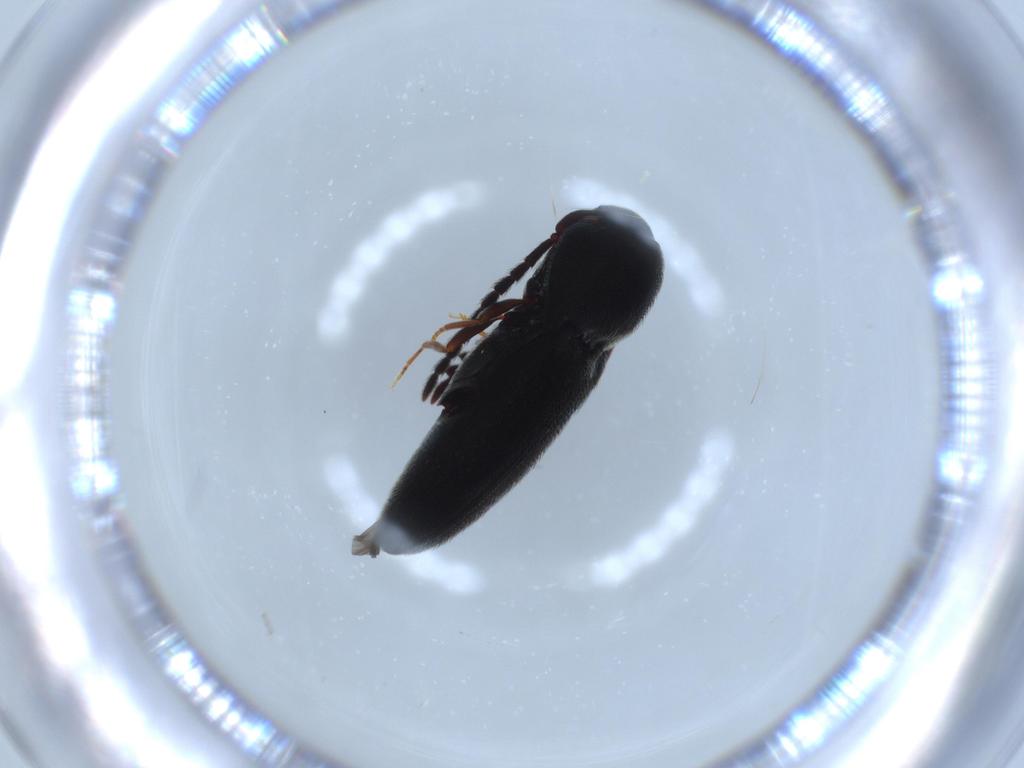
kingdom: Animalia
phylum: Arthropoda
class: Insecta
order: Coleoptera
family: Eucnemidae
